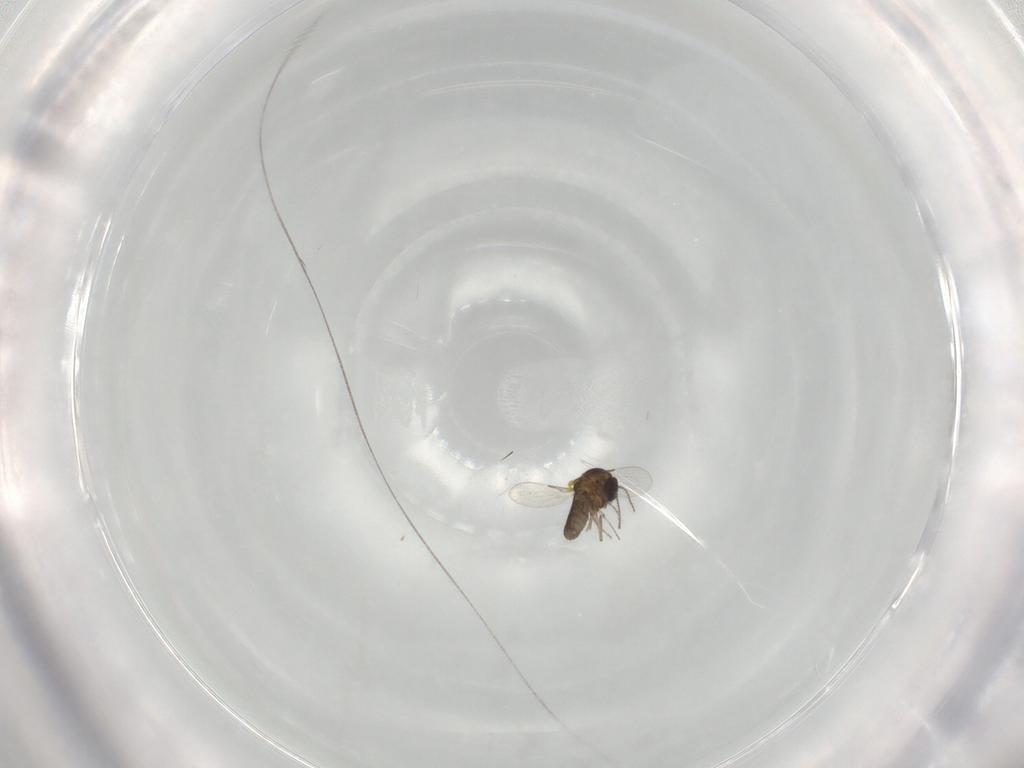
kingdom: Animalia
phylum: Arthropoda
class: Insecta
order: Diptera
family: Ceratopogonidae
